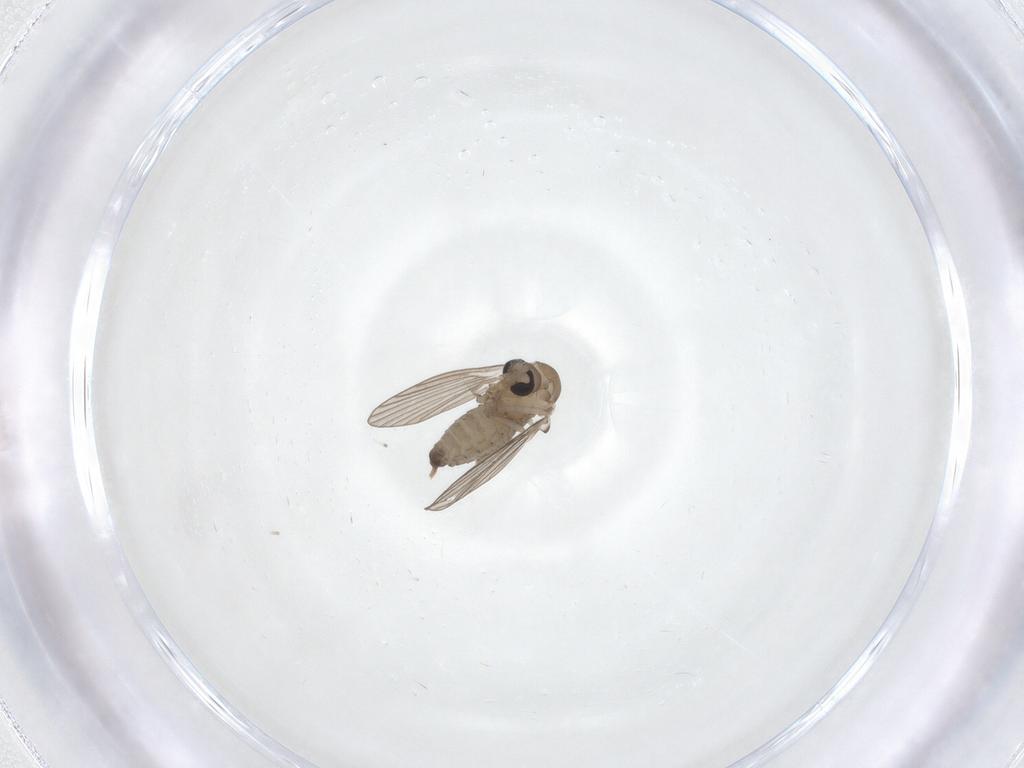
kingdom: Animalia
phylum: Arthropoda
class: Insecta
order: Diptera
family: Psychodidae
